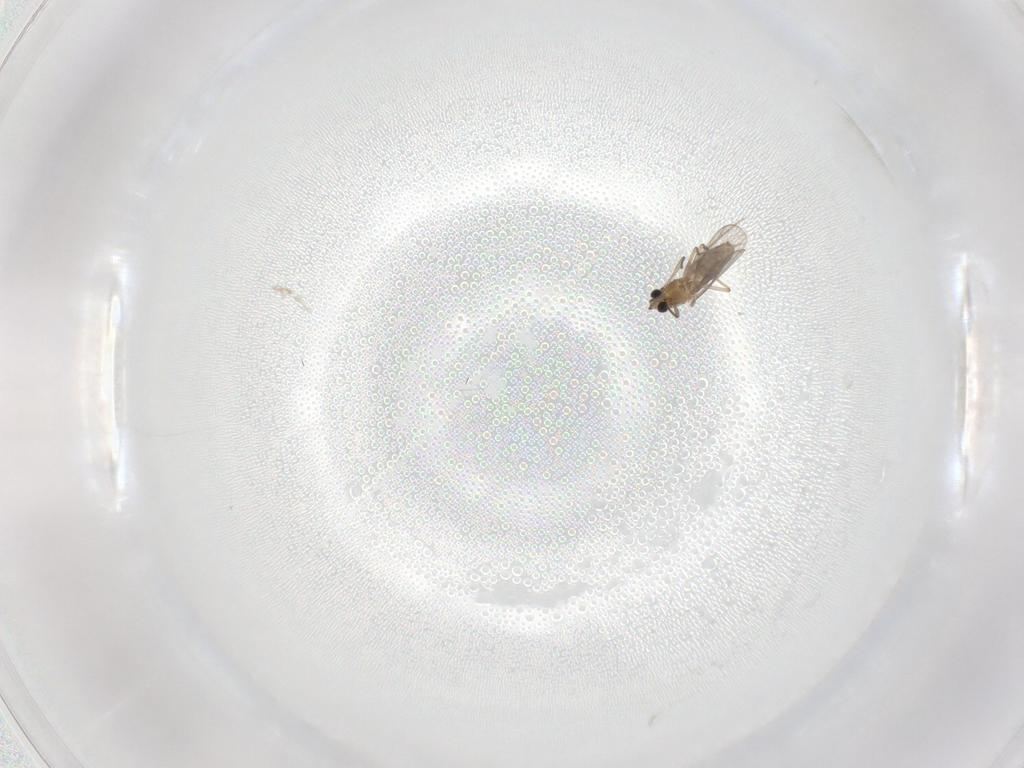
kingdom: Animalia
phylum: Arthropoda
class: Insecta
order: Diptera
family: Chironomidae
